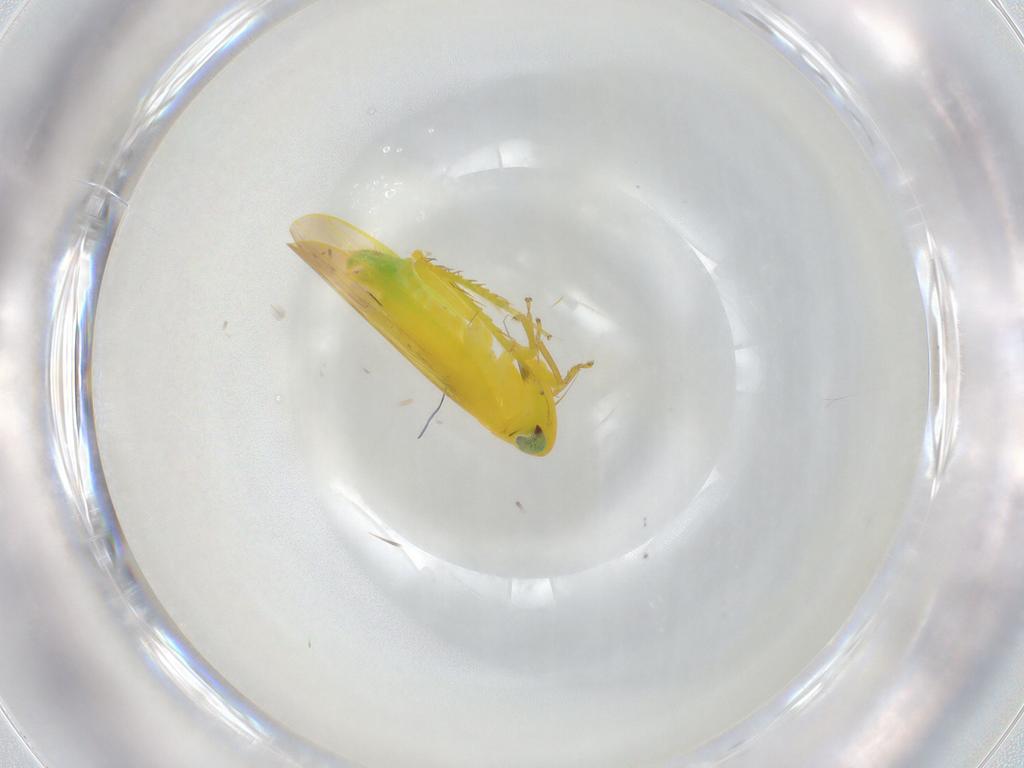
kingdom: Animalia
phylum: Arthropoda
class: Insecta
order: Hemiptera
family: Cicadellidae
